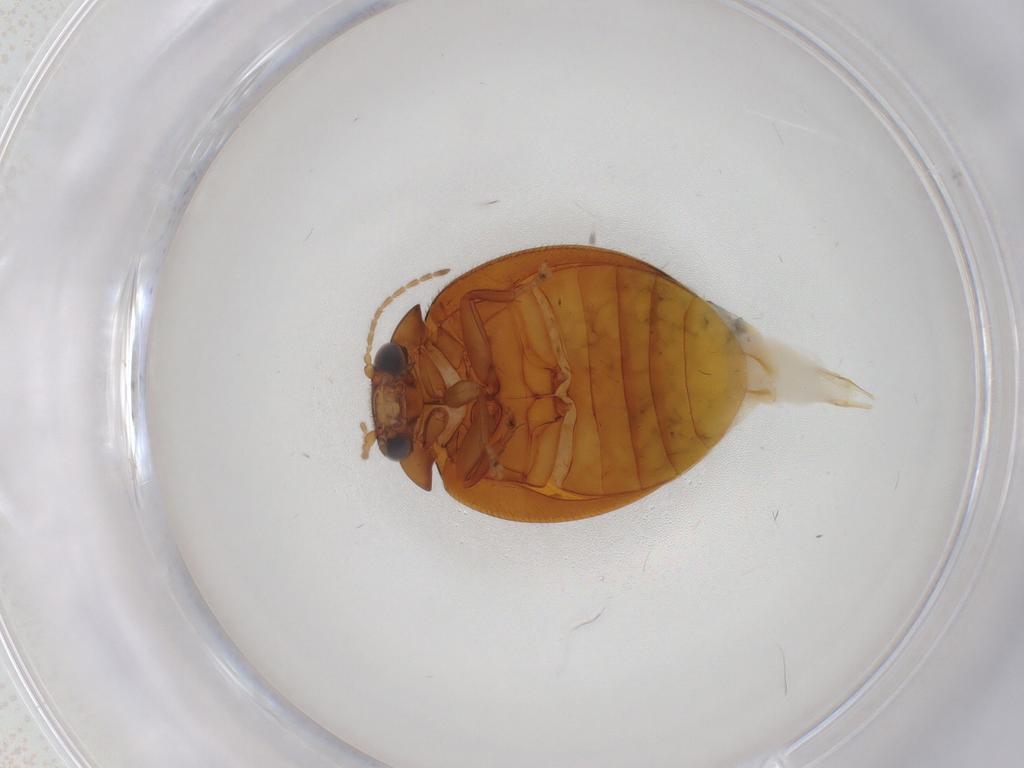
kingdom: Animalia
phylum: Arthropoda
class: Insecta
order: Coleoptera
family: Scirtidae
